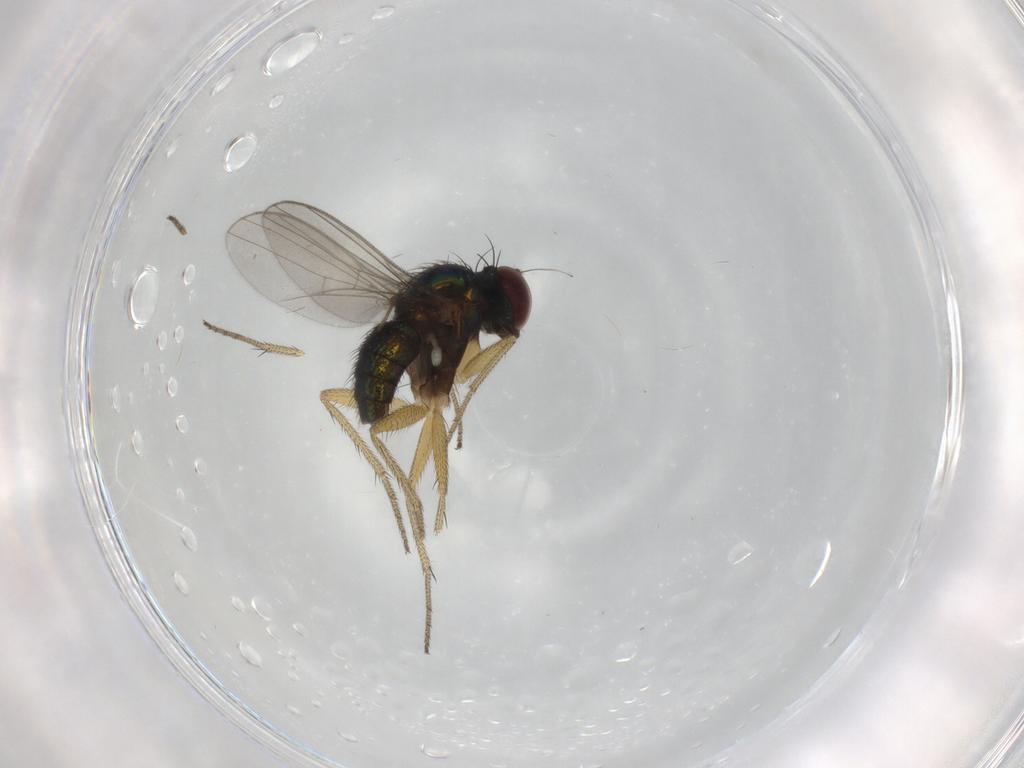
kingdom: Animalia
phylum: Arthropoda
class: Insecta
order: Diptera
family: Dolichopodidae
